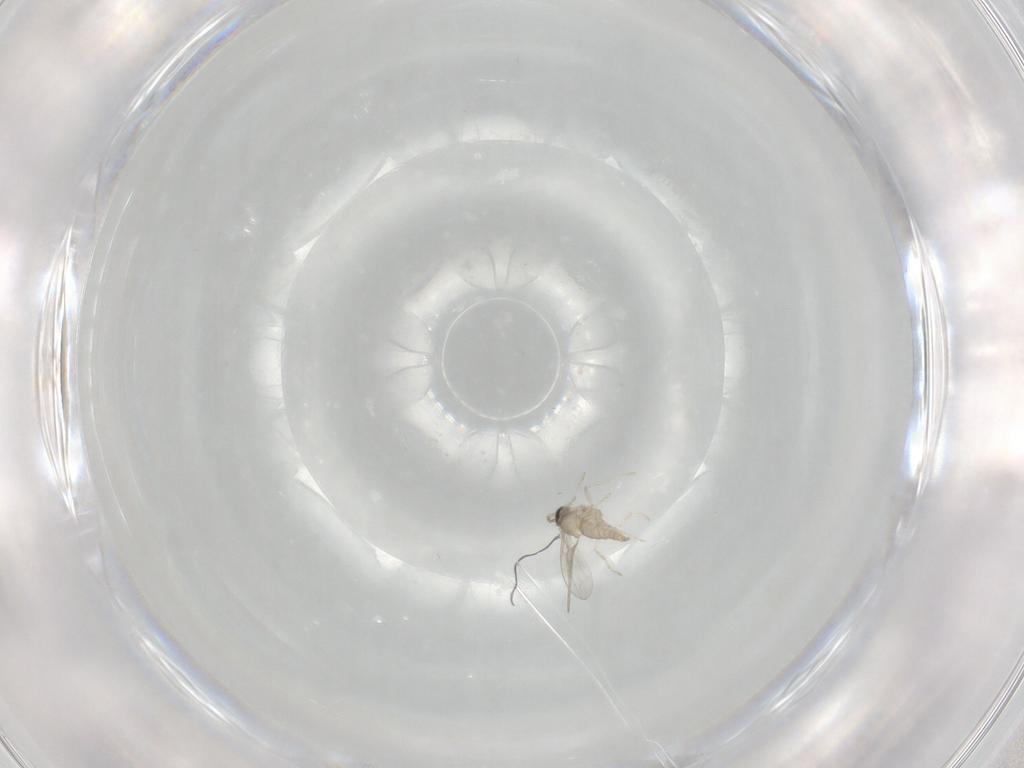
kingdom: Animalia
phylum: Arthropoda
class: Insecta
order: Diptera
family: Cecidomyiidae
